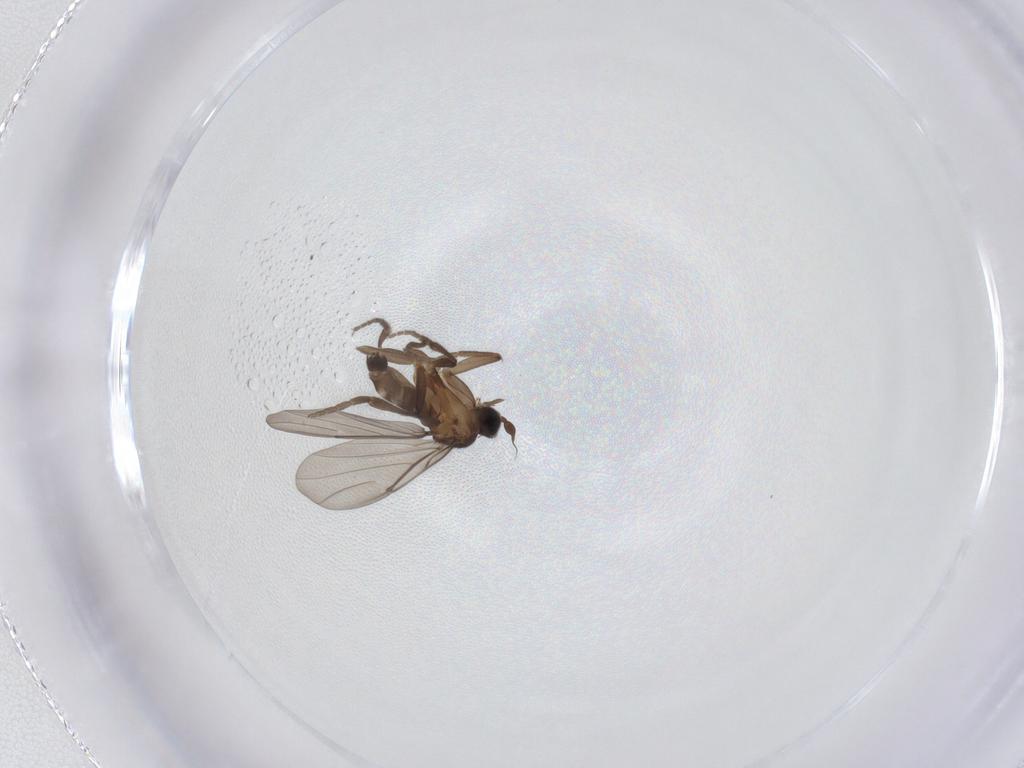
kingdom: Animalia
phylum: Arthropoda
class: Insecta
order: Diptera
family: Phoridae
